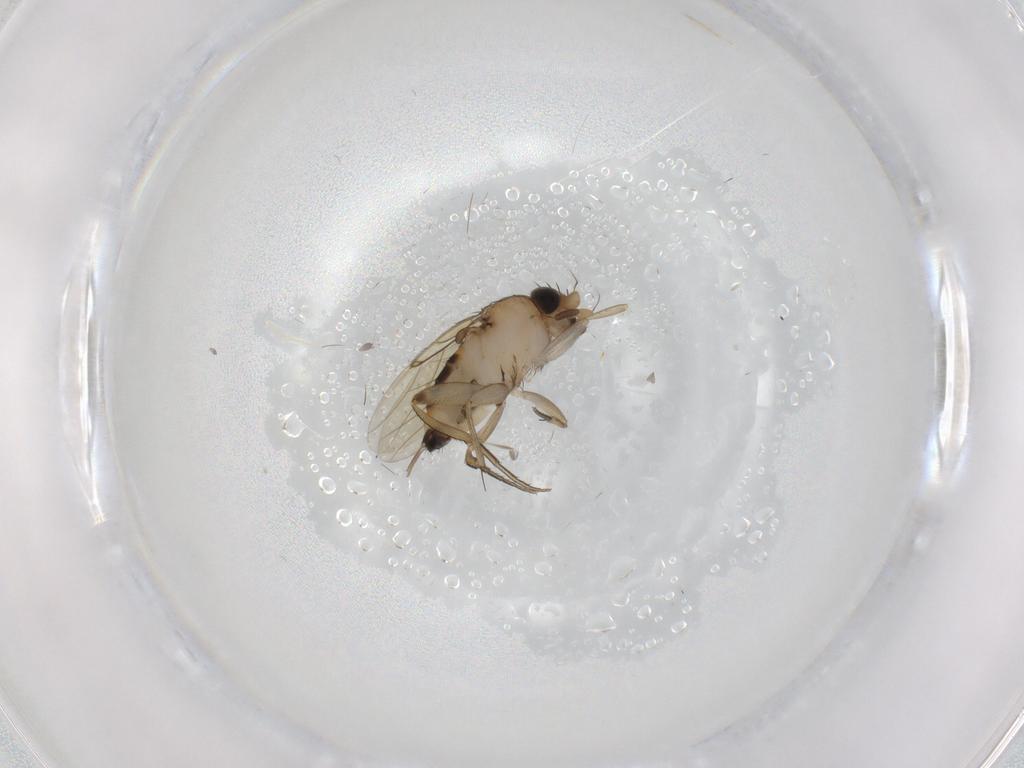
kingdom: Animalia
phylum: Arthropoda
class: Insecta
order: Diptera
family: Phoridae
